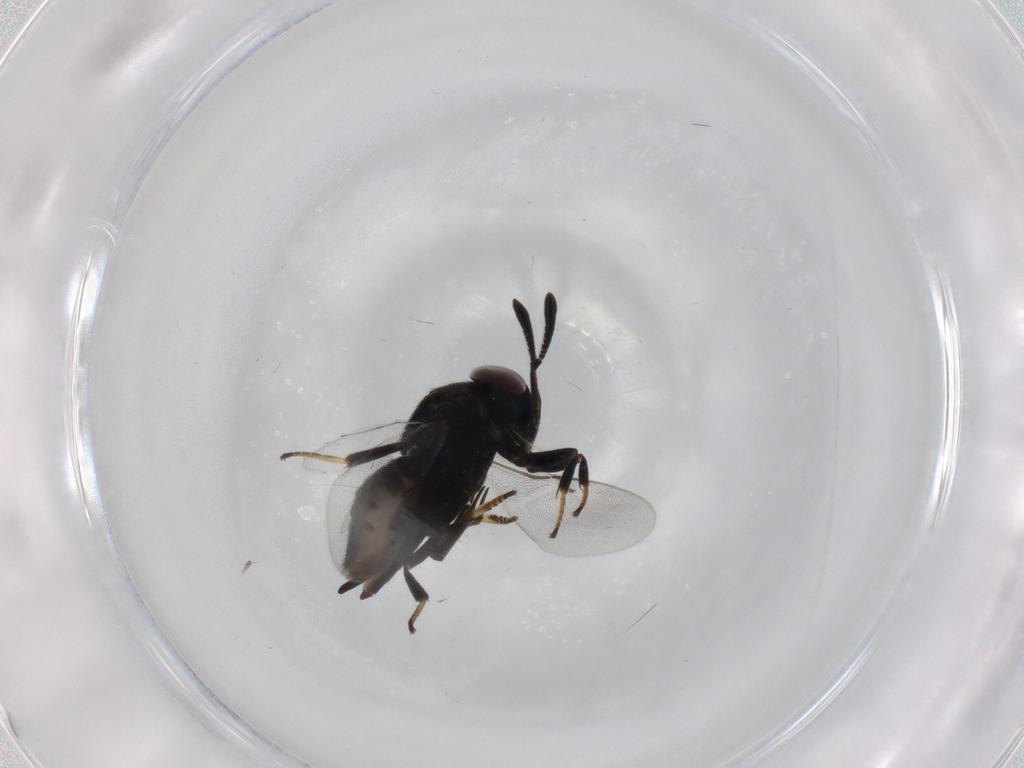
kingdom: Animalia
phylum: Arthropoda
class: Insecta
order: Hymenoptera
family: Encyrtidae
